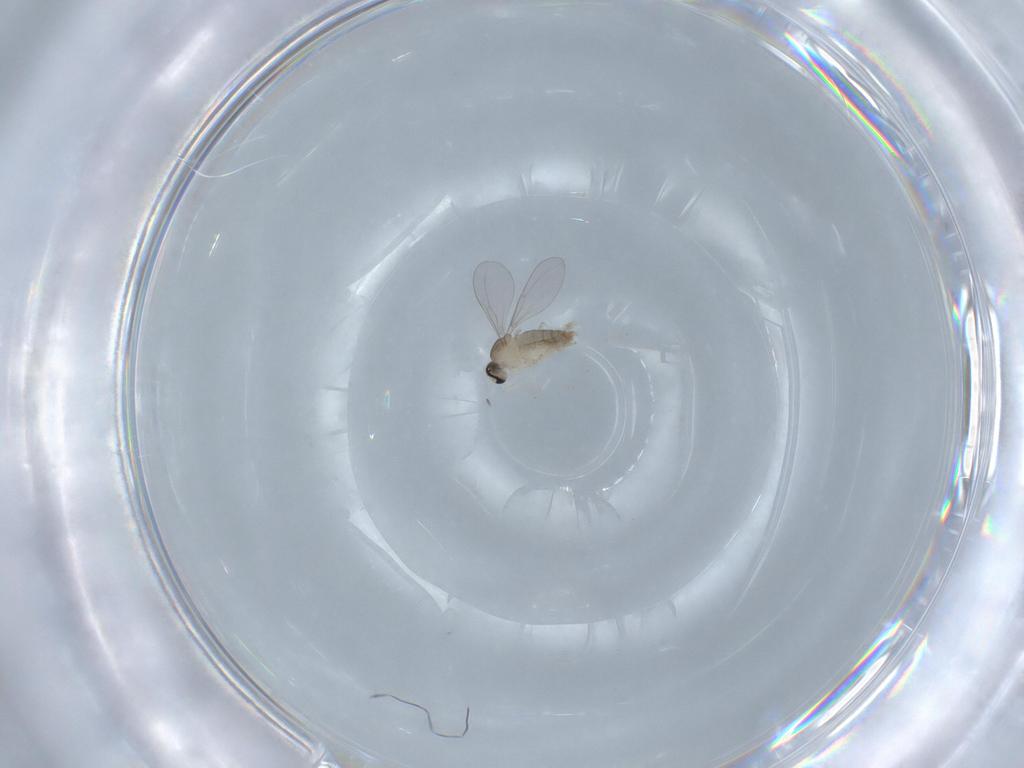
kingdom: Animalia
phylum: Arthropoda
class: Insecta
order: Diptera
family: Cecidomyiidae
